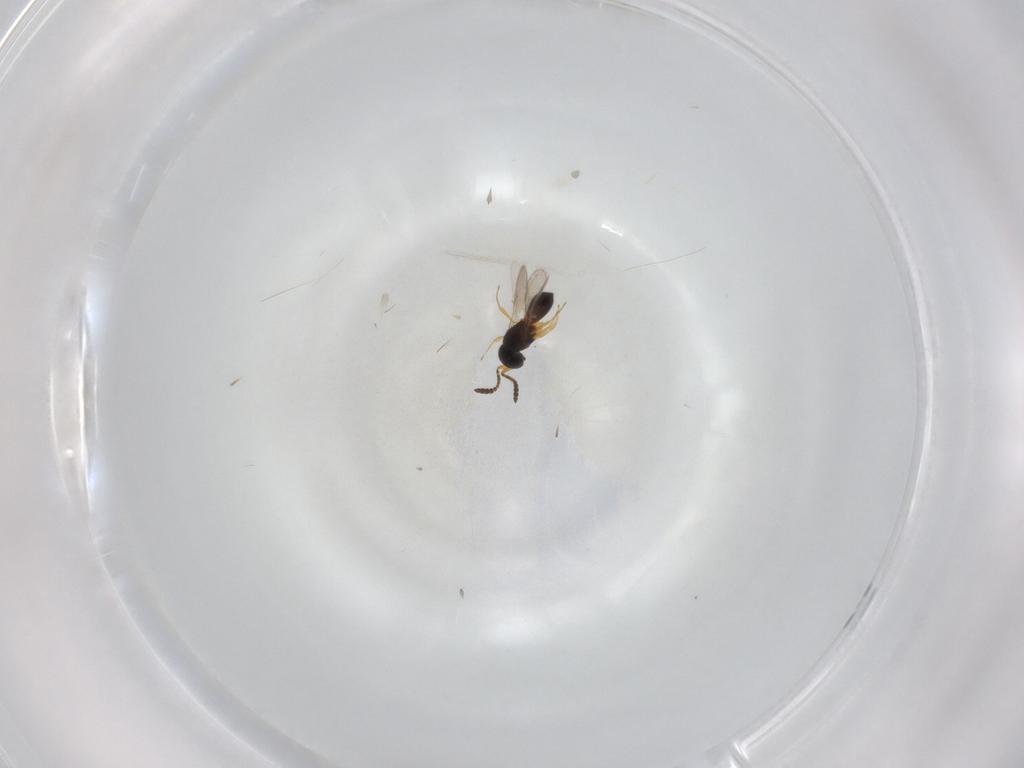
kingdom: Animalia
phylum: Arthropoda
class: Insecta
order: Hymenoptera
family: Scelionidae
